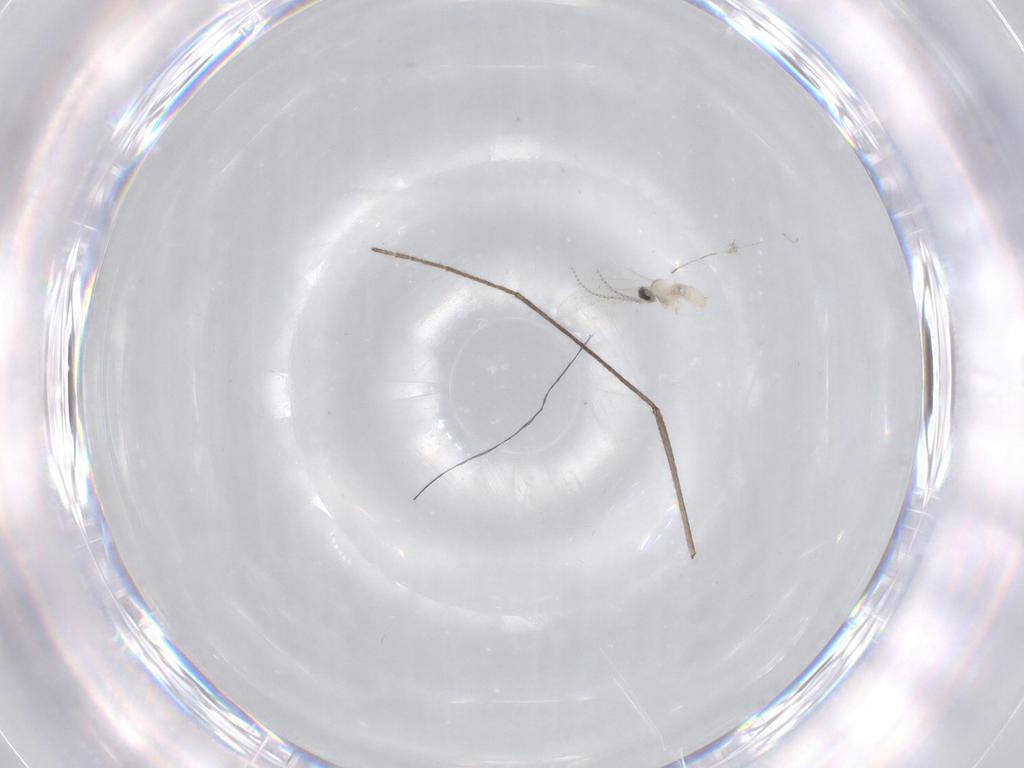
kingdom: Animalia
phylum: Arthropoda
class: Insecta
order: Diptera
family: Limoniidae
